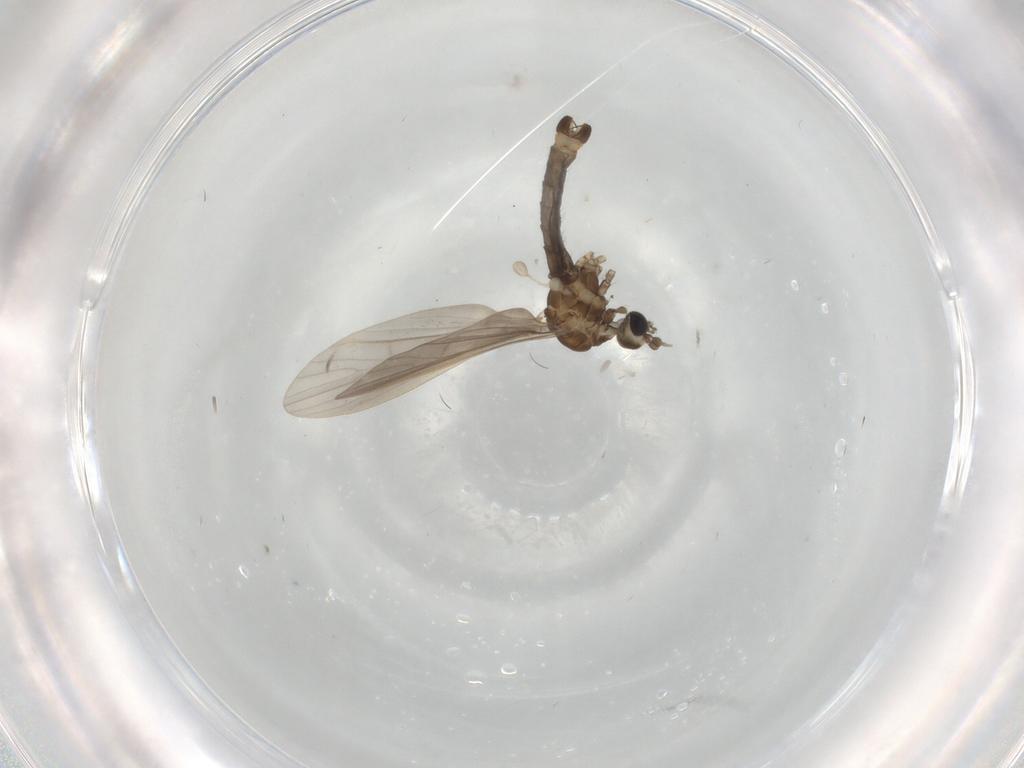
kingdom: Animalia
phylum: Arthropoda
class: Insecta
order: Diptera
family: Limoniidae
